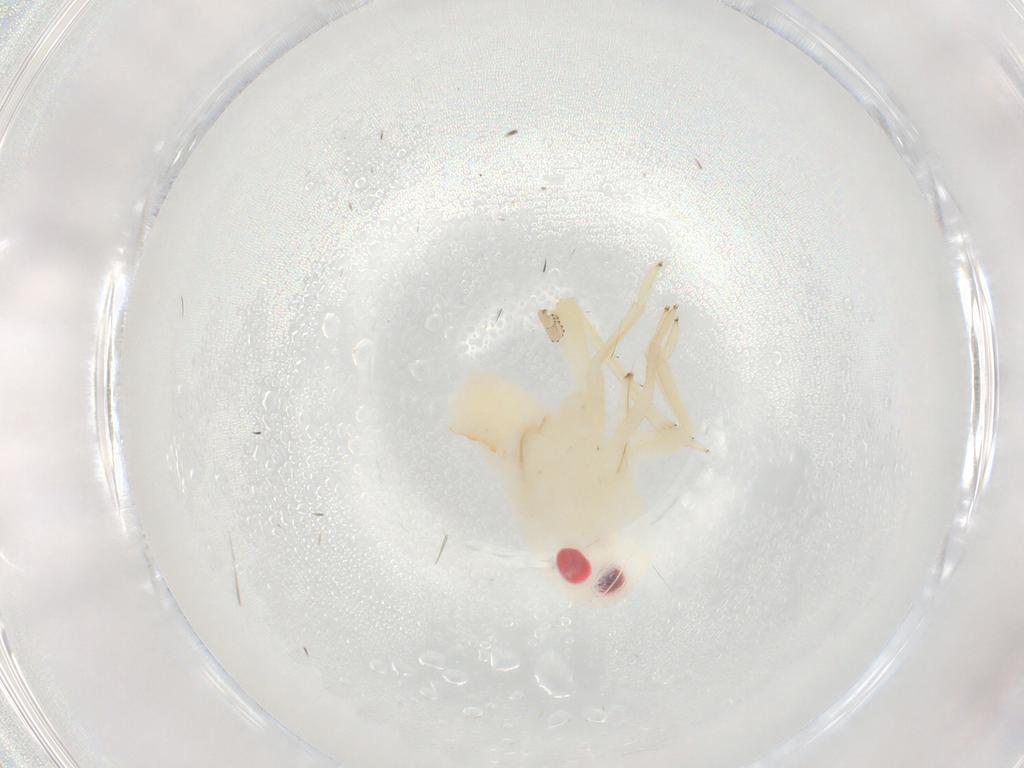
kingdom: Animalia
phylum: Arthropoda
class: Insecta
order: Hemiptera
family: Tropiduchidae
